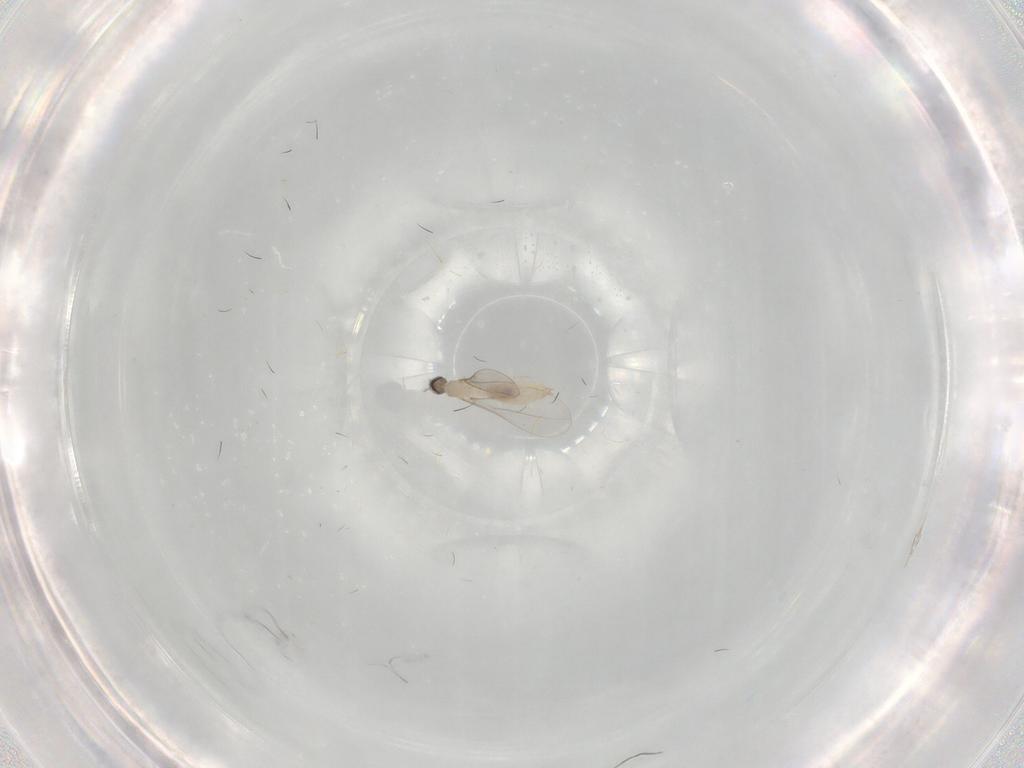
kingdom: Animalia
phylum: Arthropoda
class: Insecta
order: Diptera
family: Cecidomyiidae
